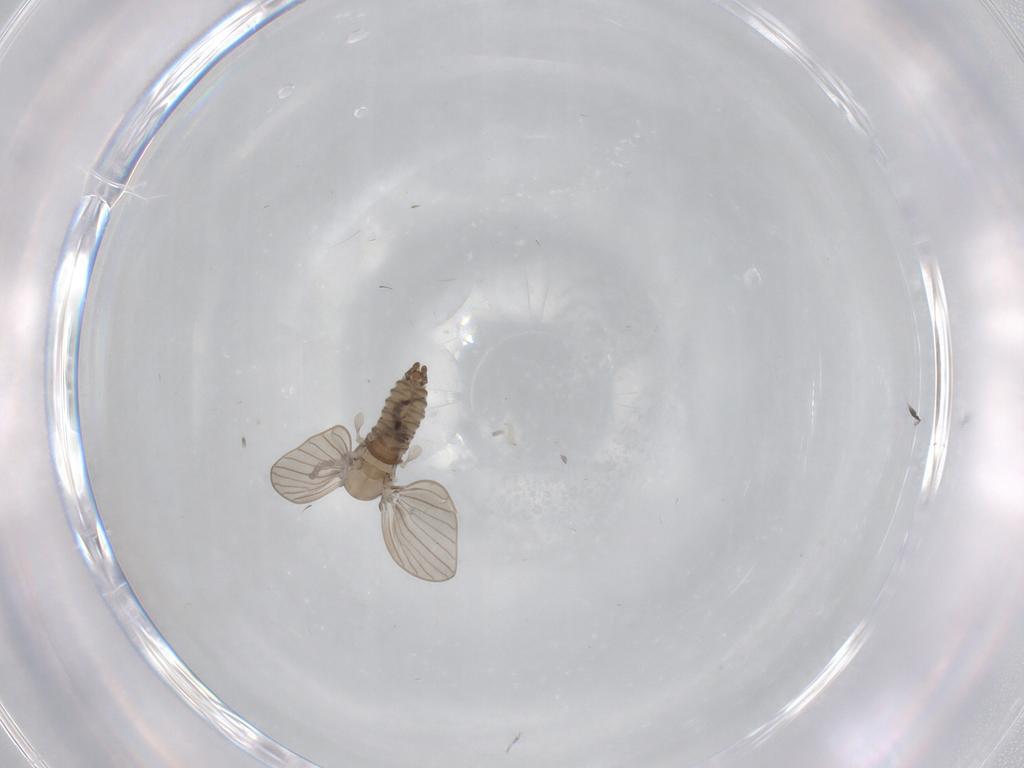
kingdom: Animalia
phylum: Arthropoda
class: Insecta
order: Diptera
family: Psychodidae
